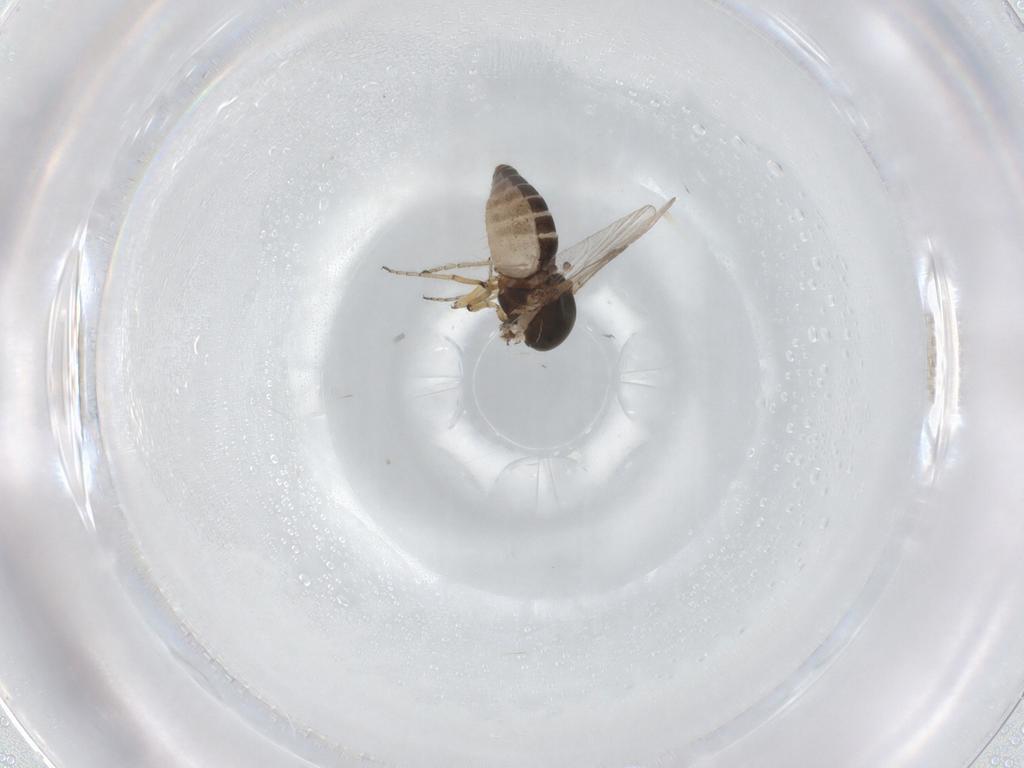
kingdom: Animalia
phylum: Arthropoda
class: Insecta
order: Diptera
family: Ceratopogonidae
